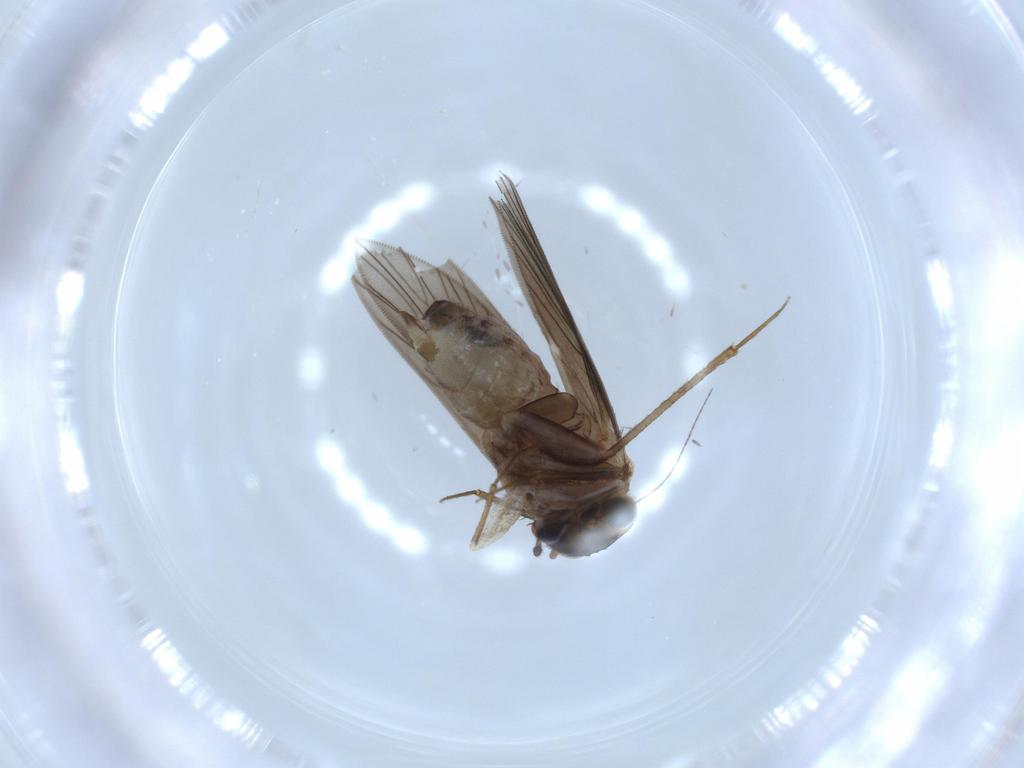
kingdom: Animalia
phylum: Arthropoda
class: Insecta
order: Psocodea
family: Lepidopsocidae
